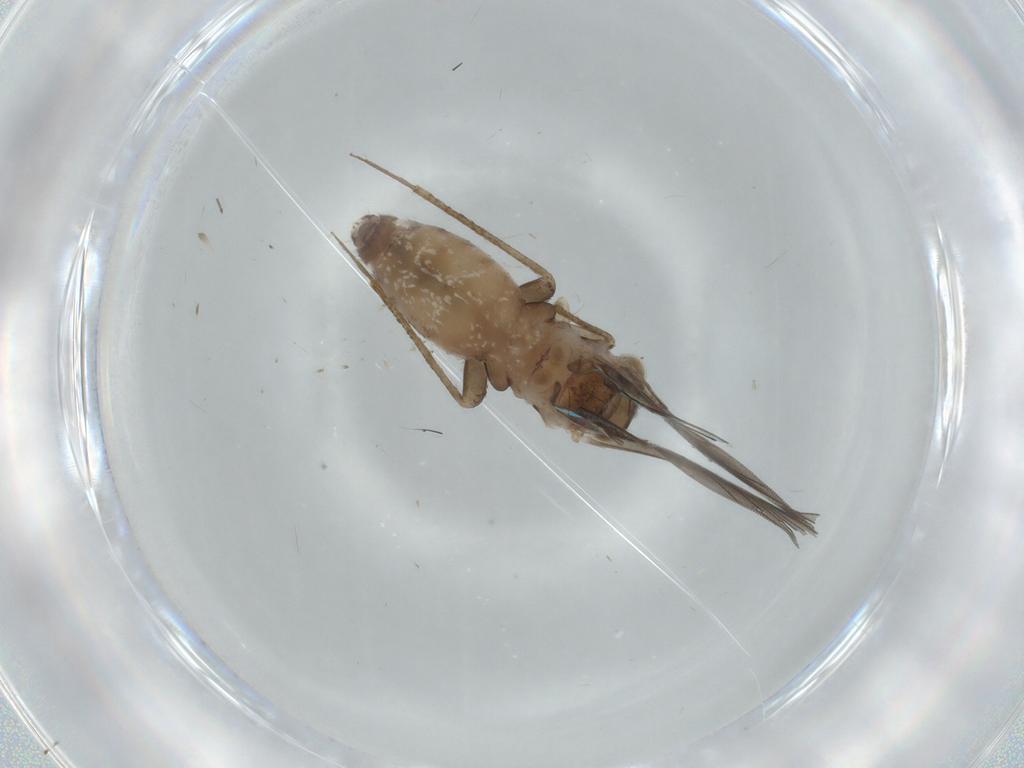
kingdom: Animalia
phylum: Arthropoda
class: Insecta
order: Psocodea
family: Lepidopsocidae
